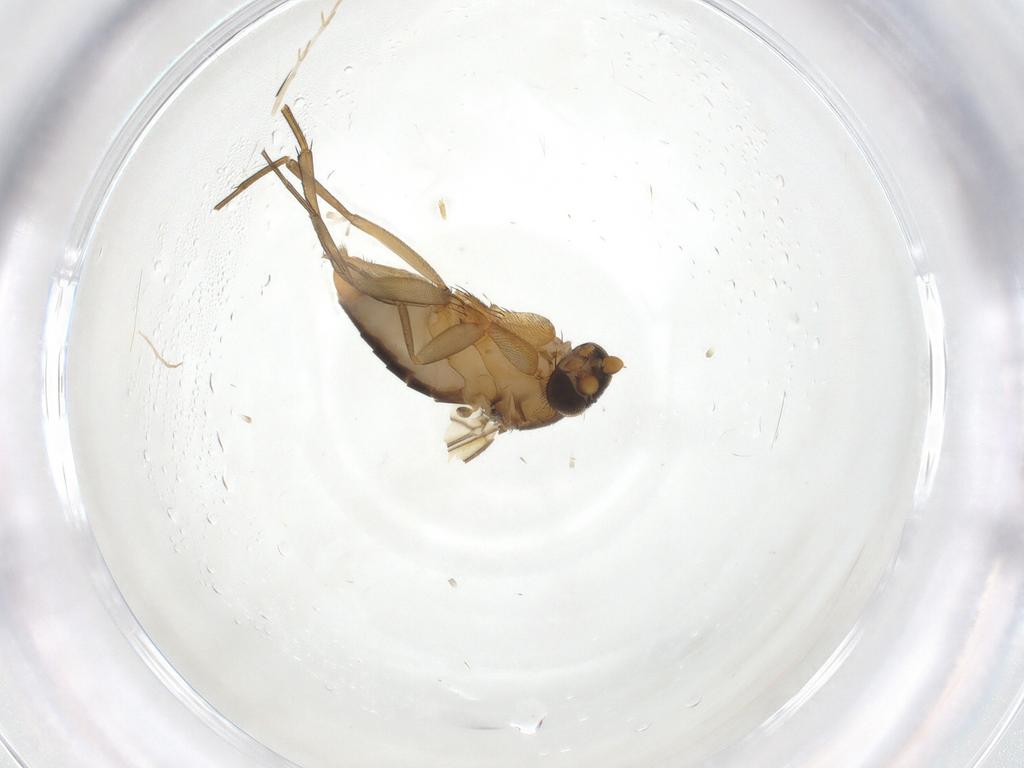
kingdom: Animalia
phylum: Arthropoda
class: Insecta
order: Diptera
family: Phoridae
